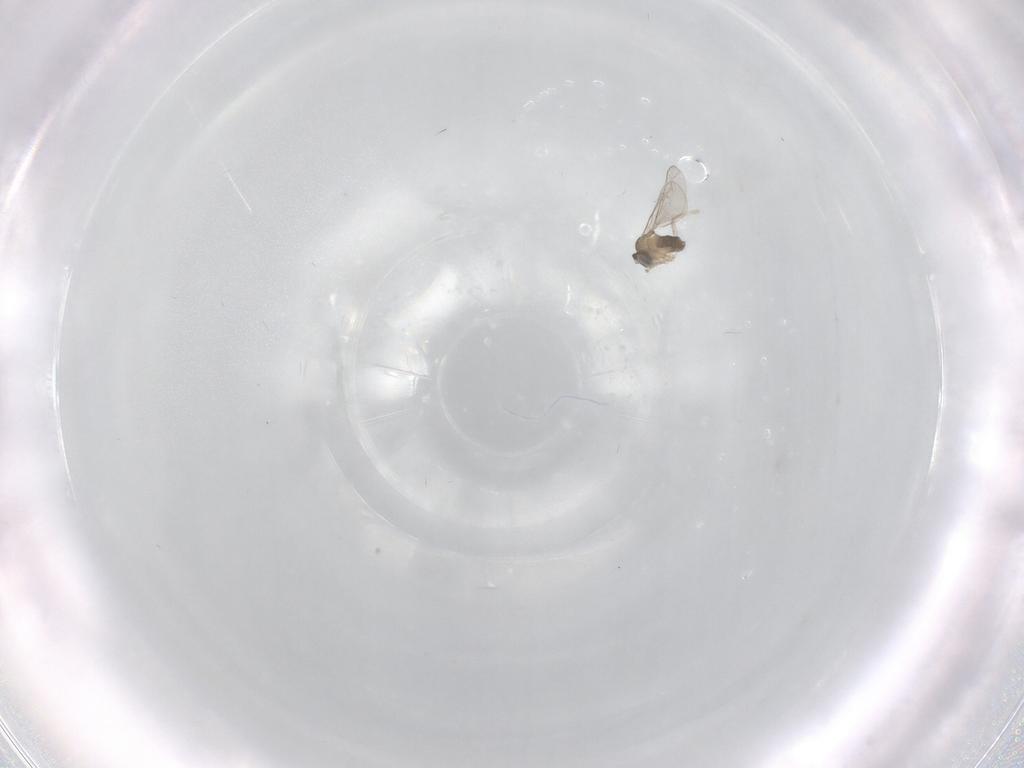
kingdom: Animalia
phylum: Arthropoda
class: Insecta
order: Diptera
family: Cecidomyiidae
